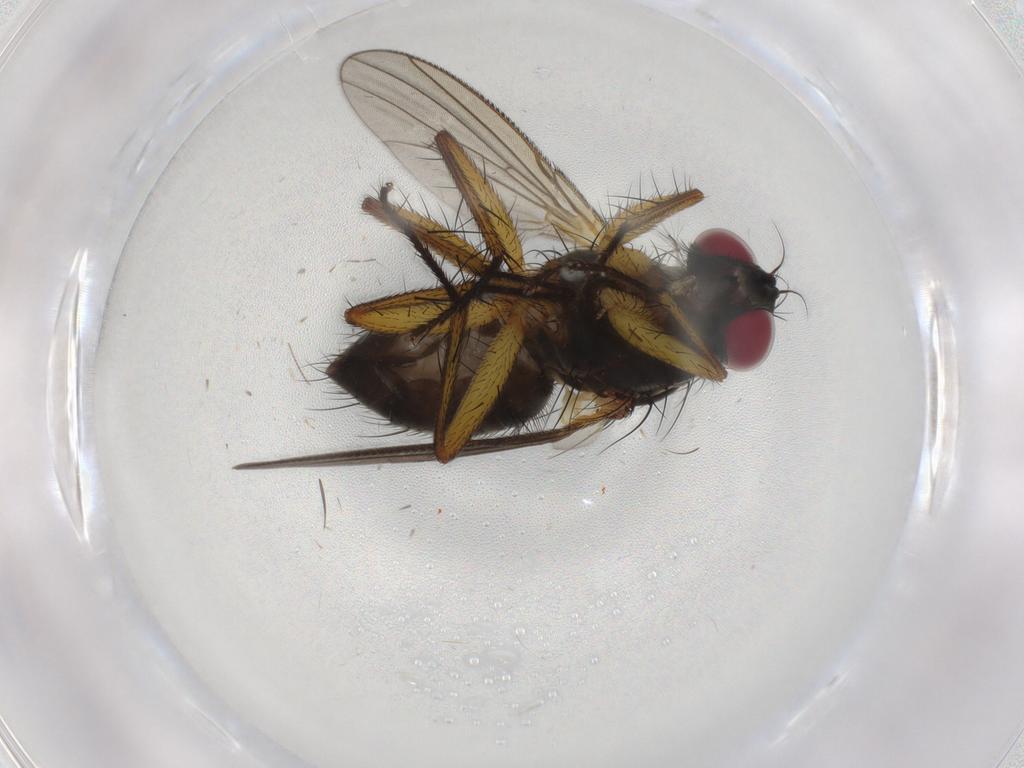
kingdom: Animalia
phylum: Arthropoda
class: Insecta
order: Diptera
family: Muscidae
